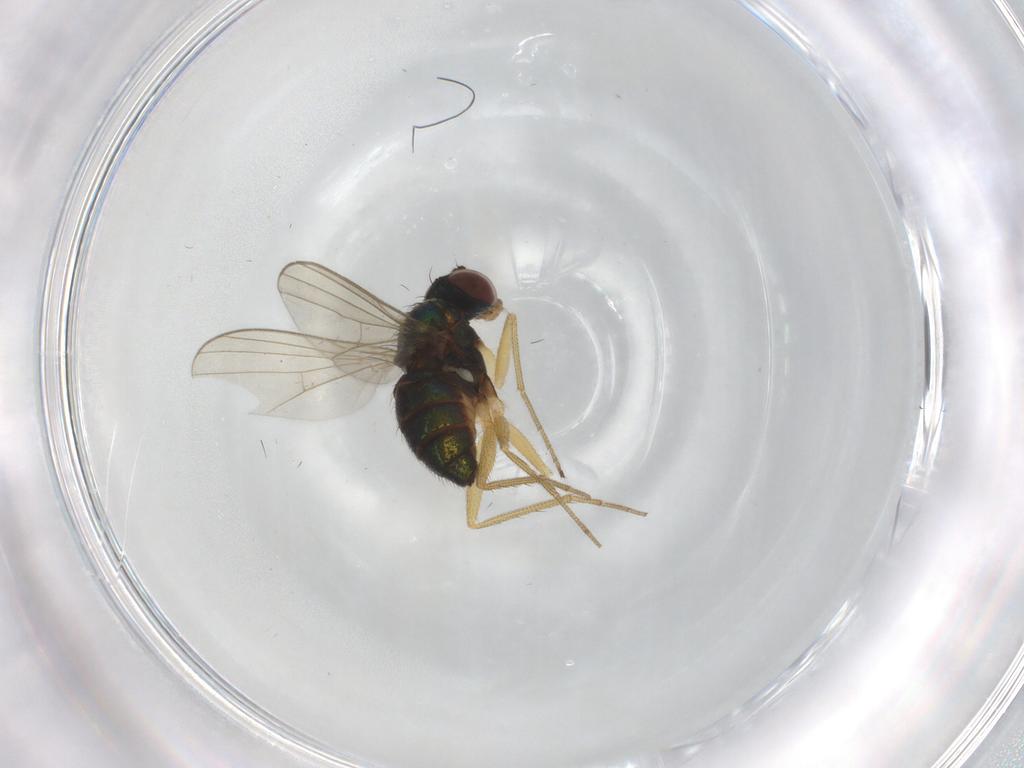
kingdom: Animalia
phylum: Arthropoda
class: Insecta
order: Diptera
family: Dolichopodidae
